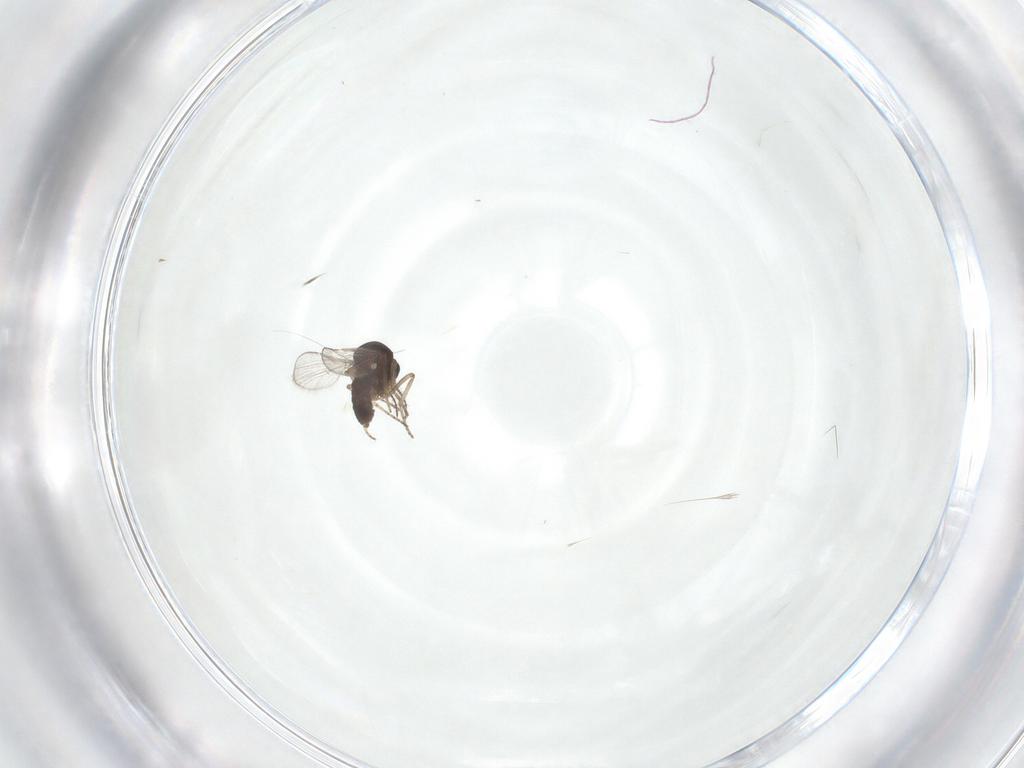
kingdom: Animalia
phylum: Arthropoda
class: Insecta
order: Diptera
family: Ceratopogonidae
